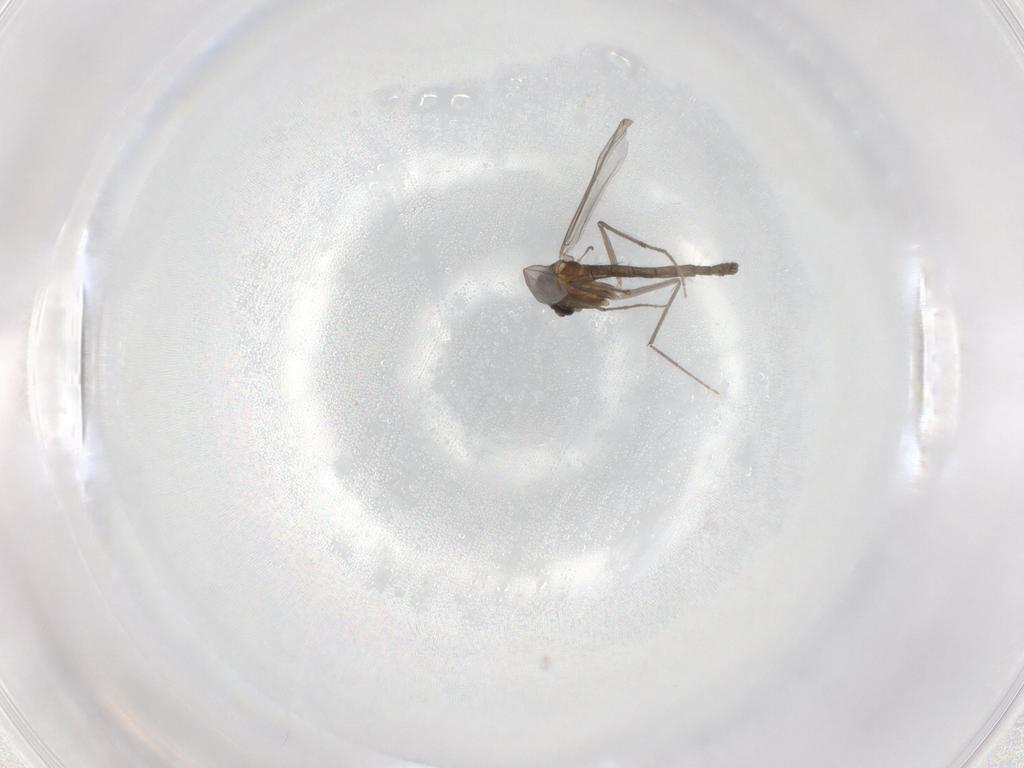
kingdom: Animalia
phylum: Arthropoda
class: Insecta
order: Diptera
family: Chironomidae
